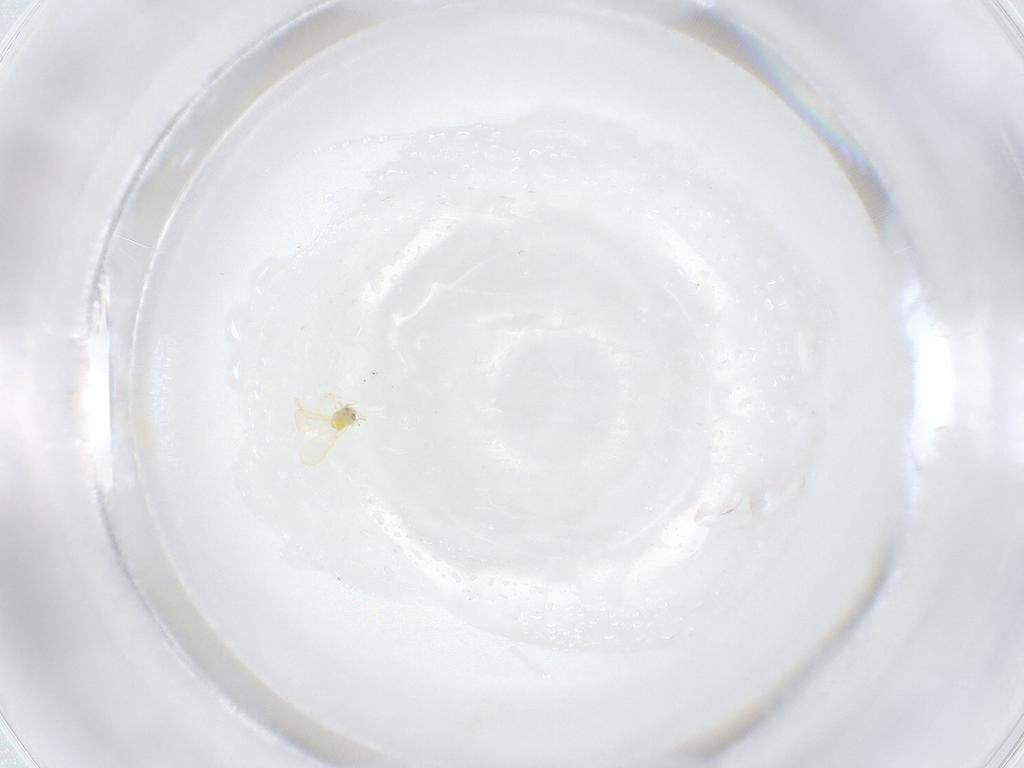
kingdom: Animalia
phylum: Arthropoda
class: Insecta
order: Hemiptera
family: Aleyrodidae
